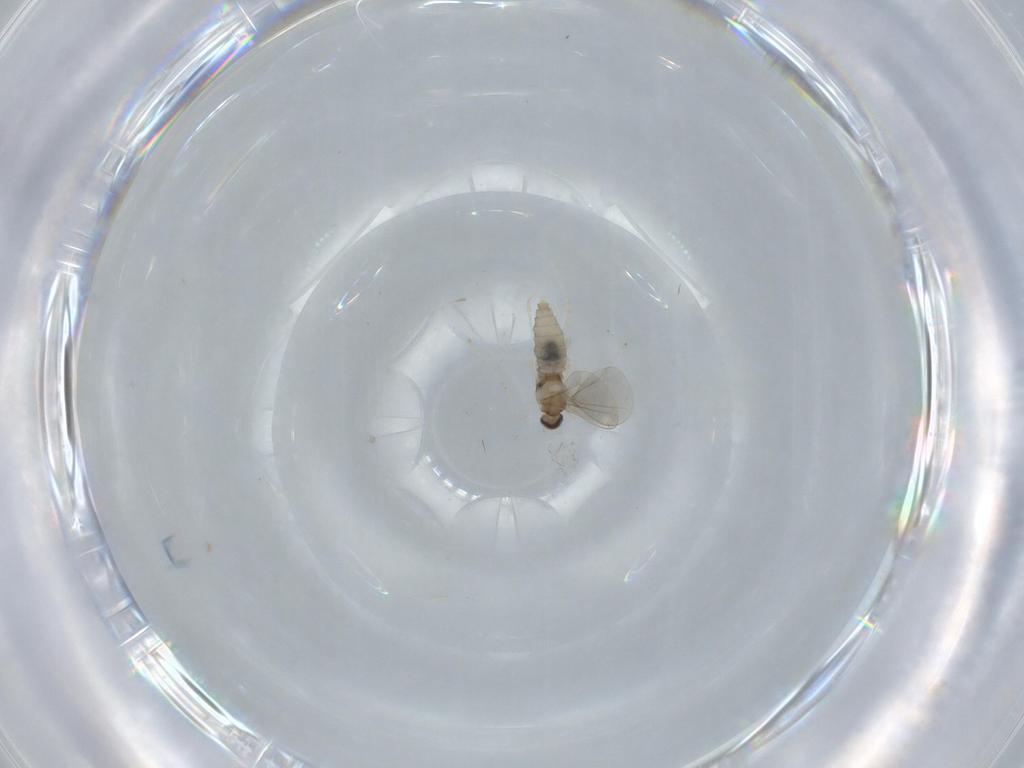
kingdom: Animalia
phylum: Arthropoda
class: Insecta
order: Diptera
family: Cecidomyiidae
